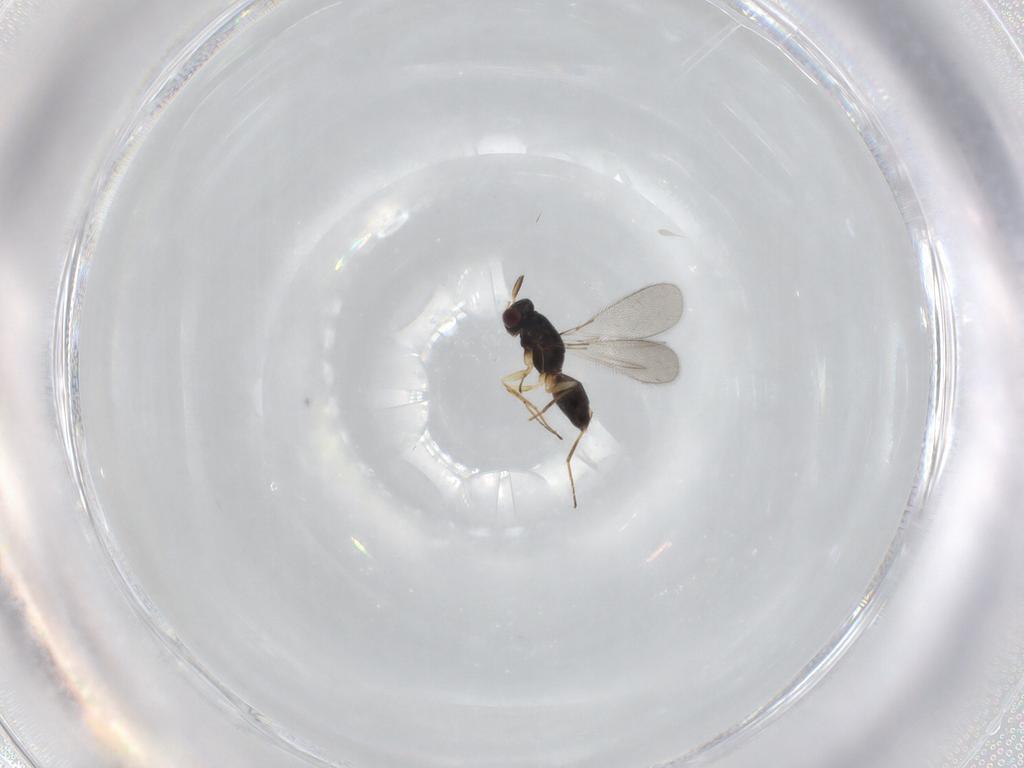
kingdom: Animalia
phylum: Arthropoda
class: Insecta
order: Hymenoptera
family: Mymaridae
